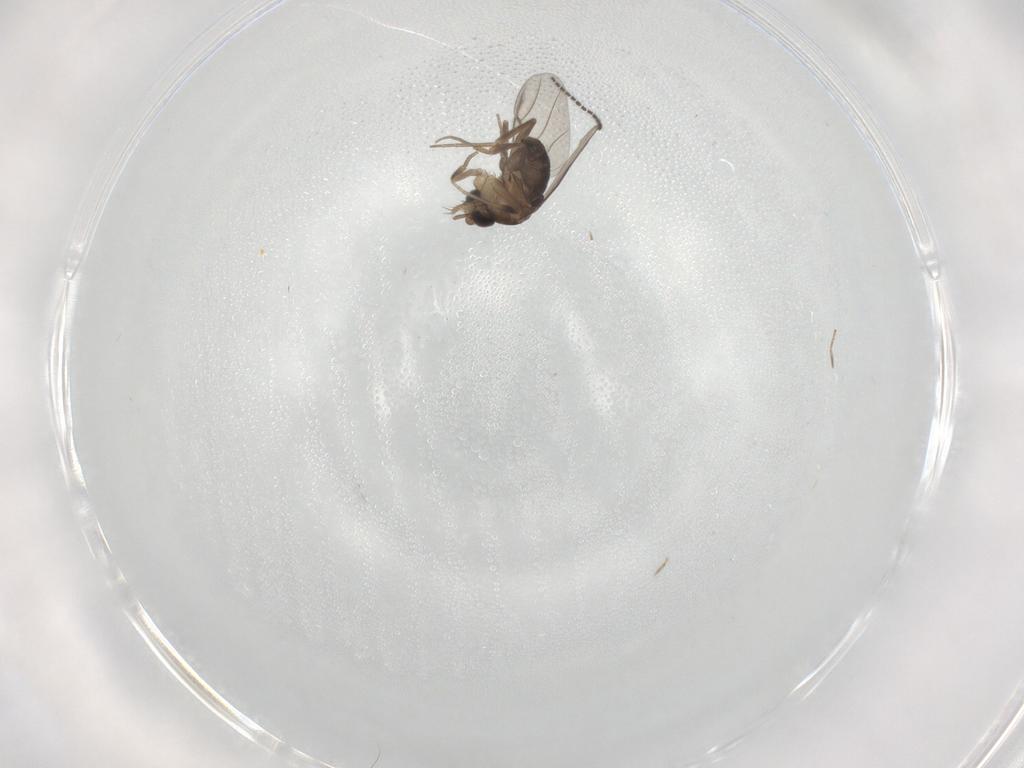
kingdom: Animalia
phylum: Arthropoda
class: Insecta
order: Diptera
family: Phoridae
